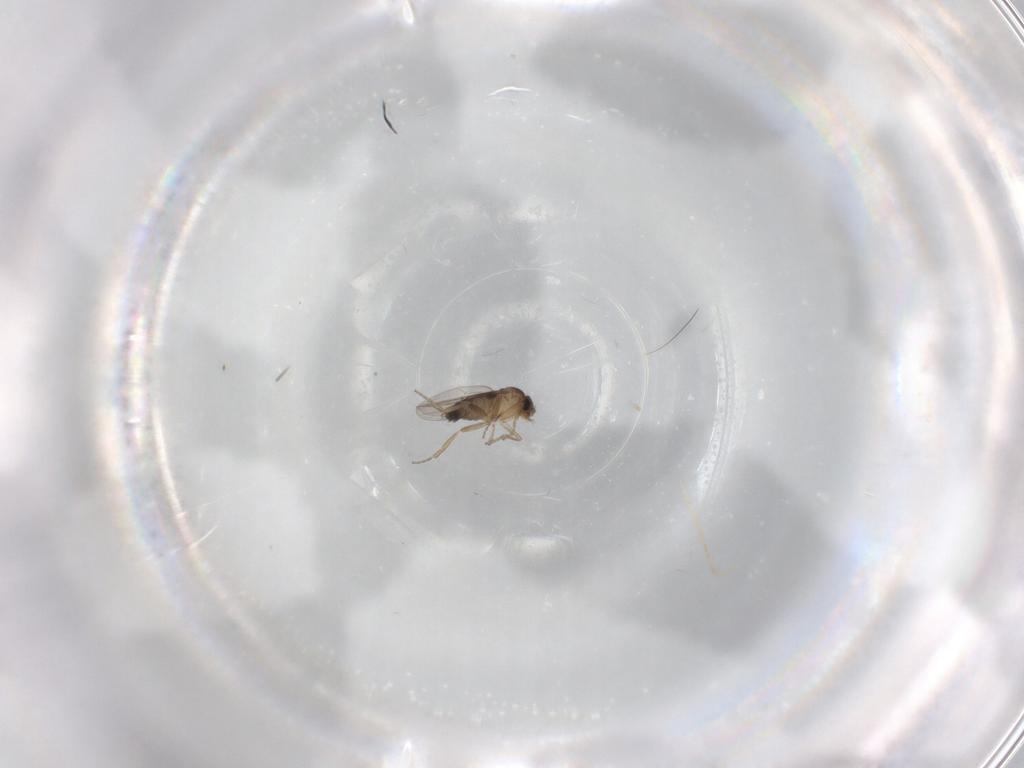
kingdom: Animalia
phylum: Arthropoda
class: Insecta
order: Diptera
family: Phoridae
